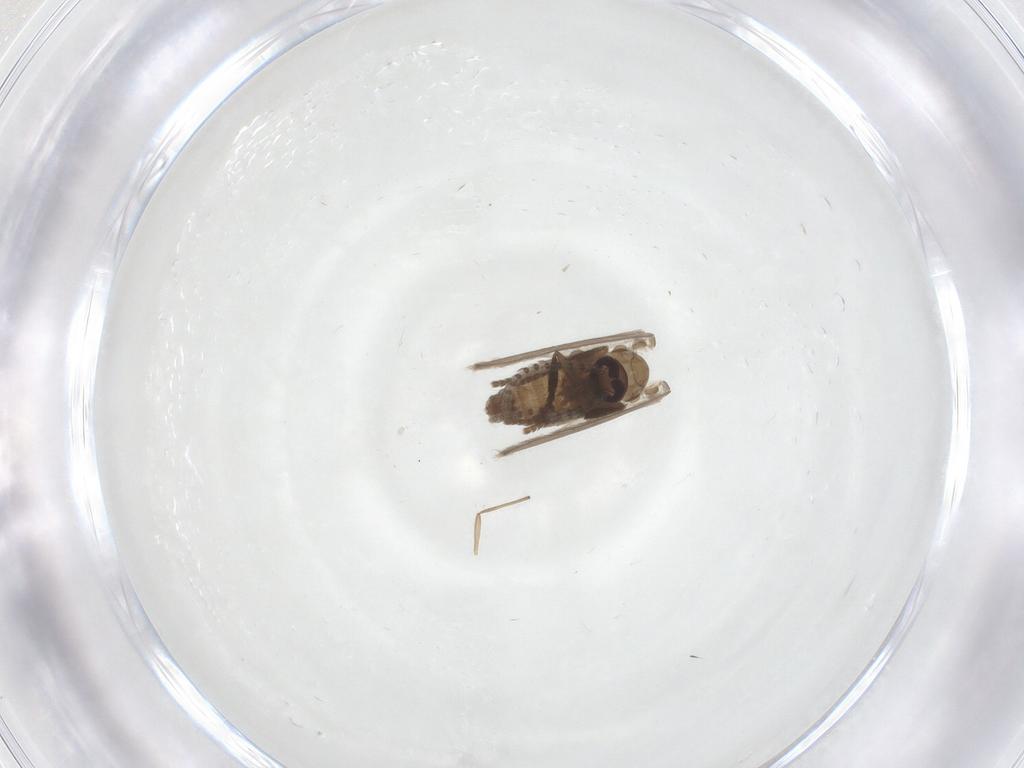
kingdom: Animalia
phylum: Arthropoda
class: Insecta
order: Diptera
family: Psychodidae
